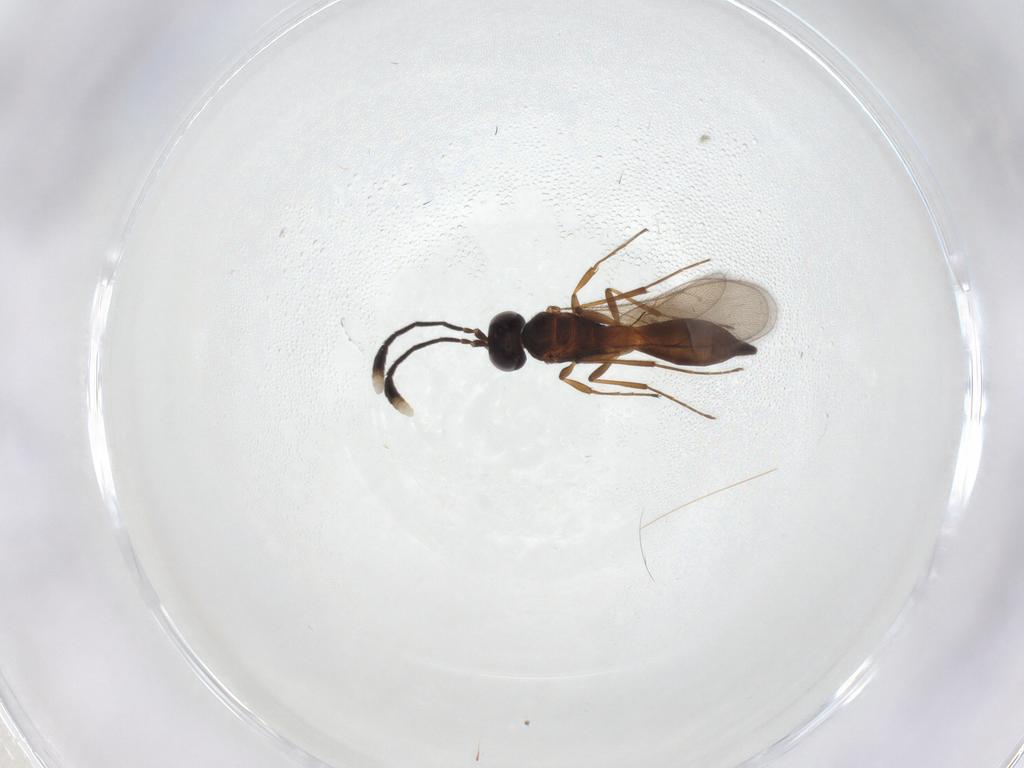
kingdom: Animalia
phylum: Arthropoda
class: Insecta
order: Hymenoptera
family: Scelionidae
